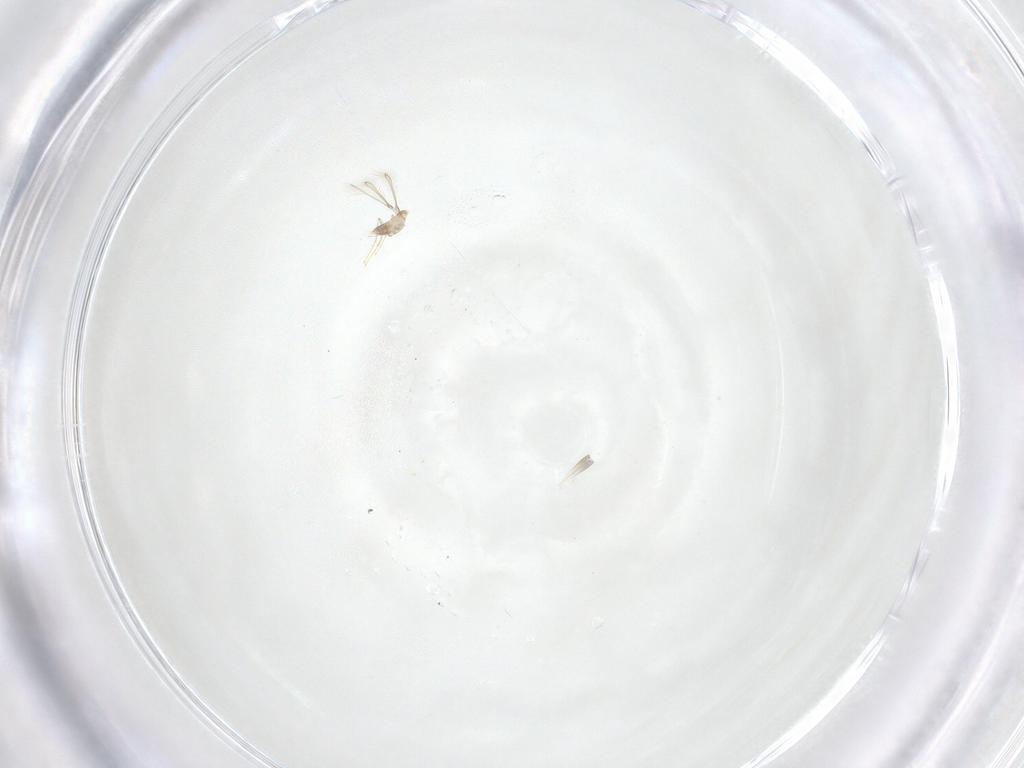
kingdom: Animalia
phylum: Arthropoda
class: Insecta
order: Hymenoptera
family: Mymaridae
